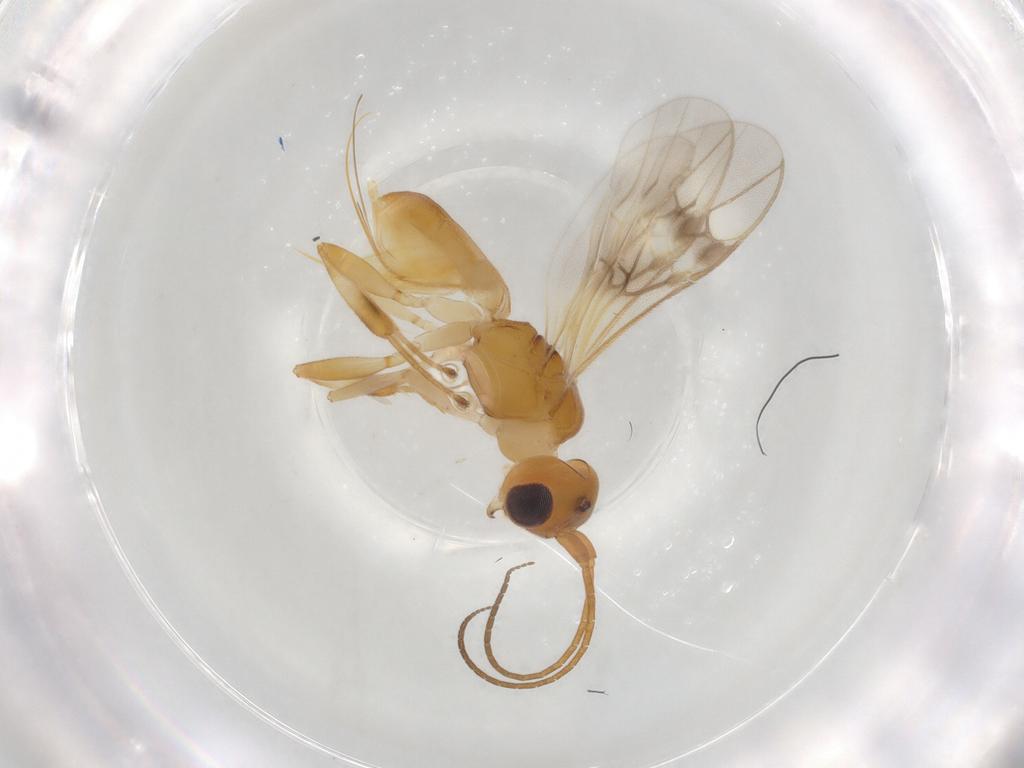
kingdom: Animalia
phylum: Arthropoda
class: Insecta
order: Hymenoptera
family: Braconidae
